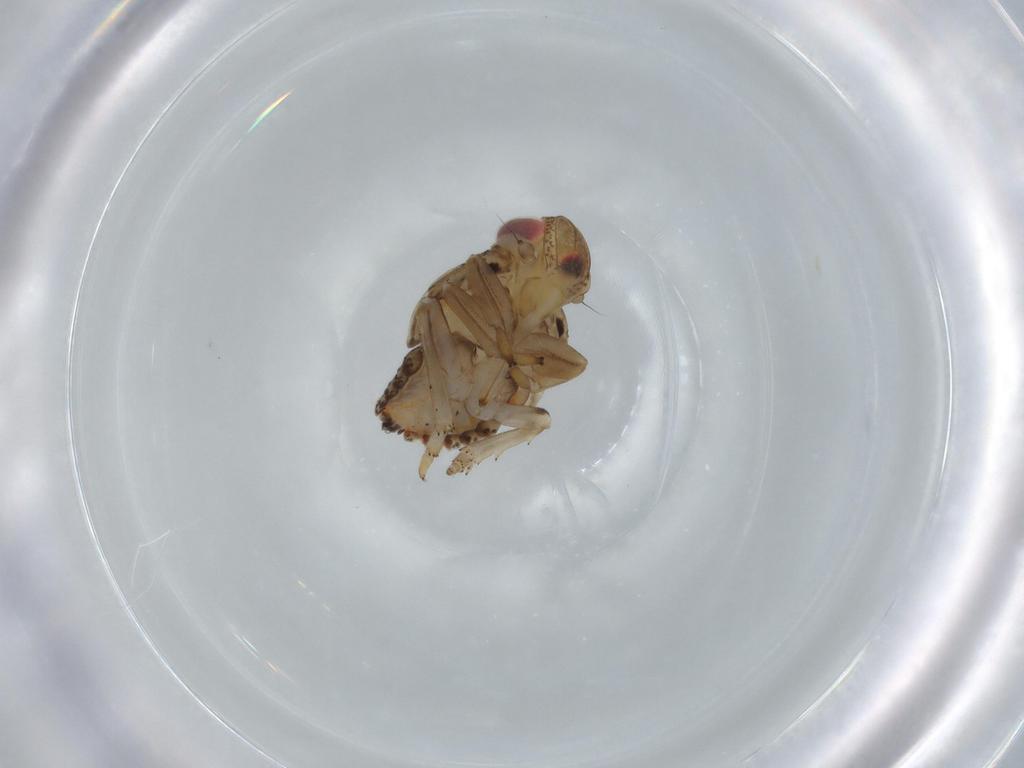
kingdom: Animalia
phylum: Arthropoda
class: Insecta
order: Hemiptera
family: Issidae
